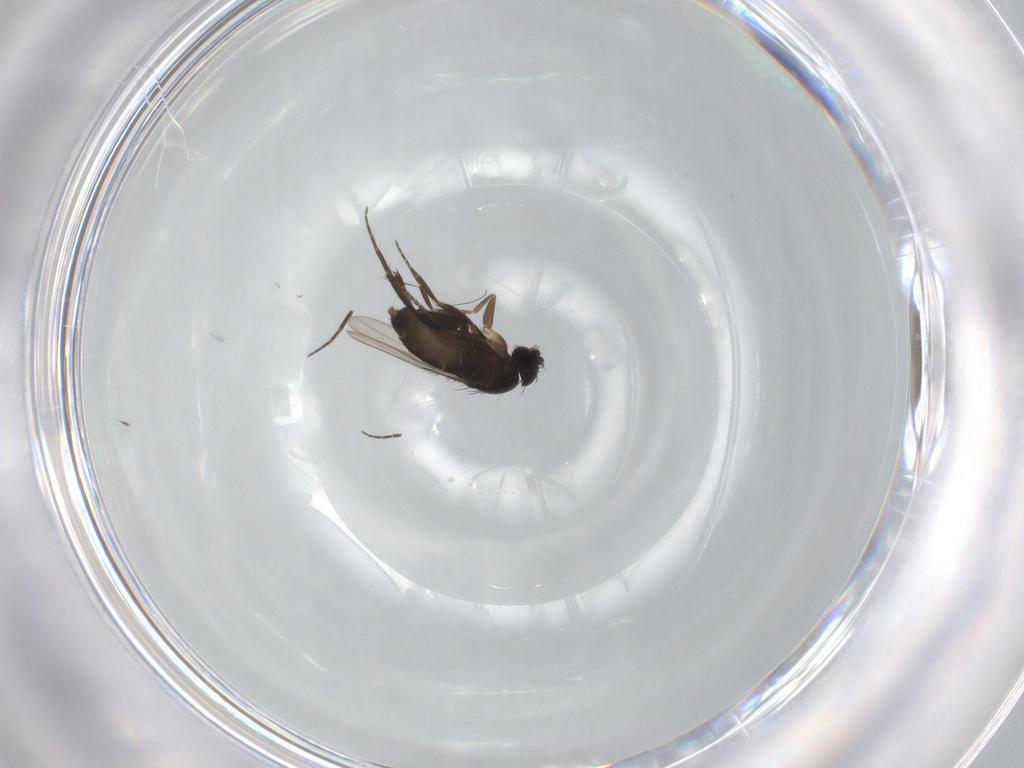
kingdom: Animalia
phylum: Arthropoda
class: Insecta
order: Diptera
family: Phoridae
